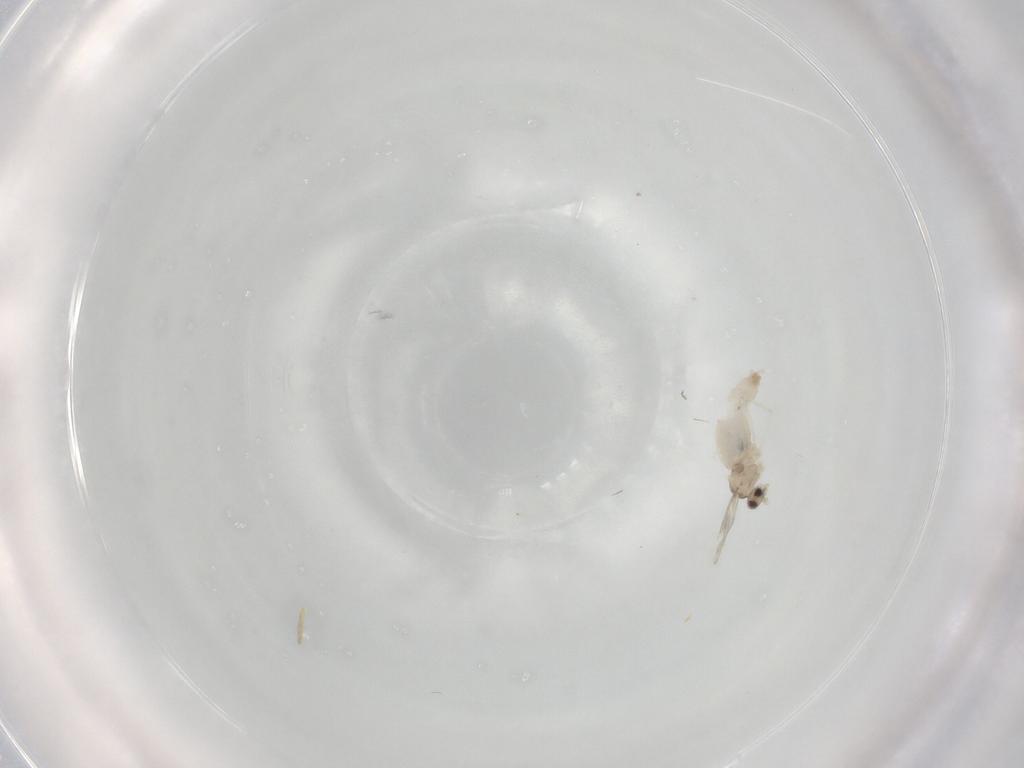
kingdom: Animalia
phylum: Arthropoda
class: Insecta
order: Diptera
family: Cecidomyiidae
